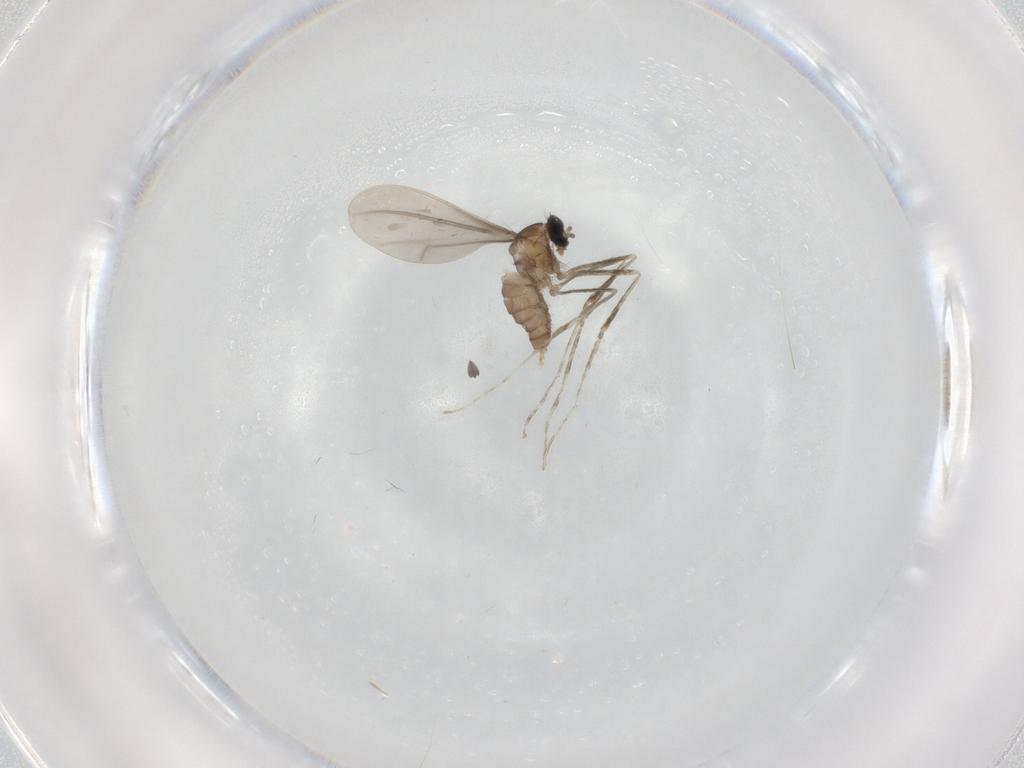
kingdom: Animalia
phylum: Arthropoda
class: Insecta
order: Diptera
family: Cecidomyiidae
